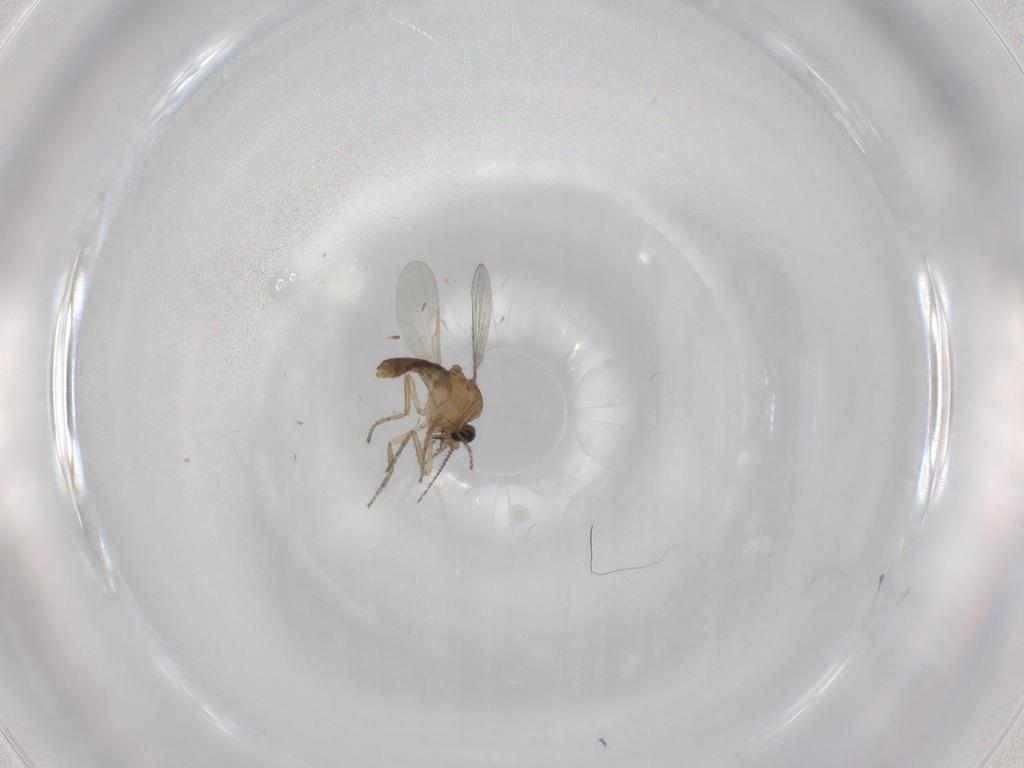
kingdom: Animalia
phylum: Arthropoda
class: Insecta
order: Diptera
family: Ceratopogonidae
